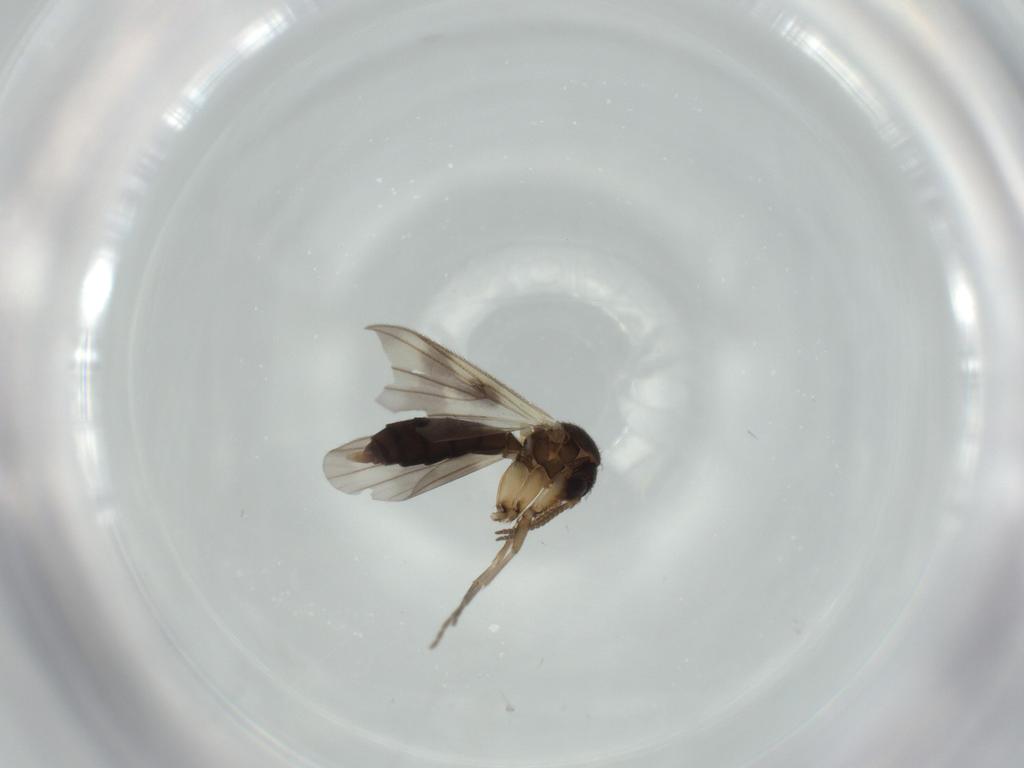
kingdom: Animalia
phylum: Arthropoda
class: Insecta
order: Diptera
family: Mycetophilidae
